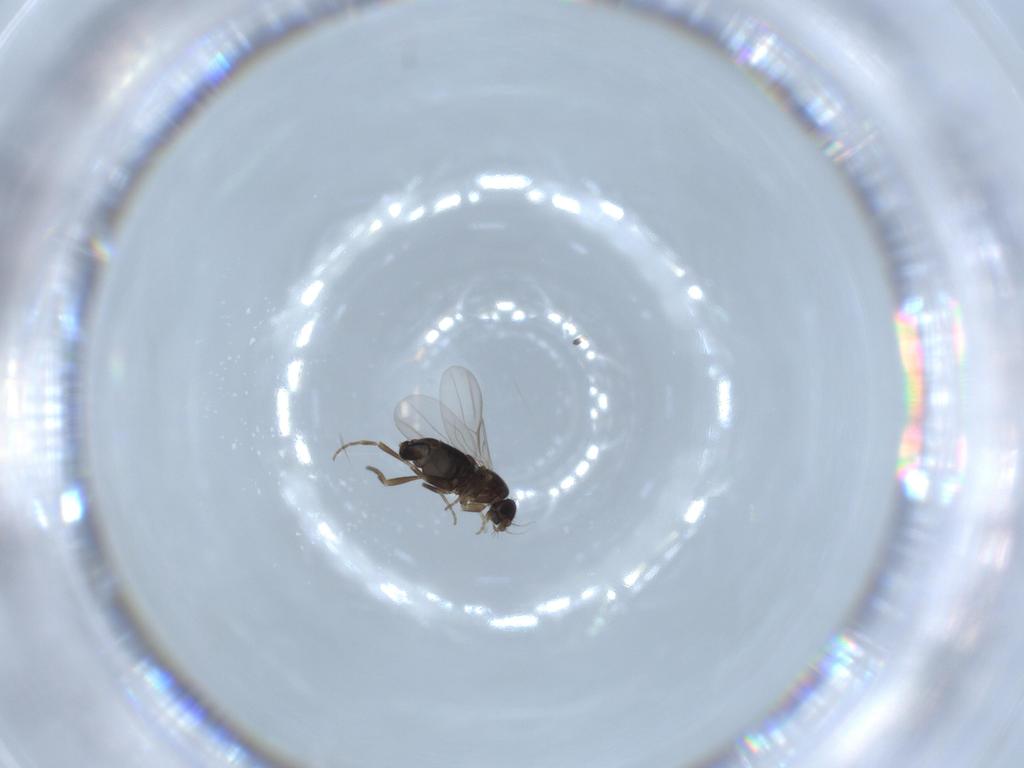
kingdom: Animalia
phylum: Arthropoda
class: Insecta
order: Diptera
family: Phoridae
